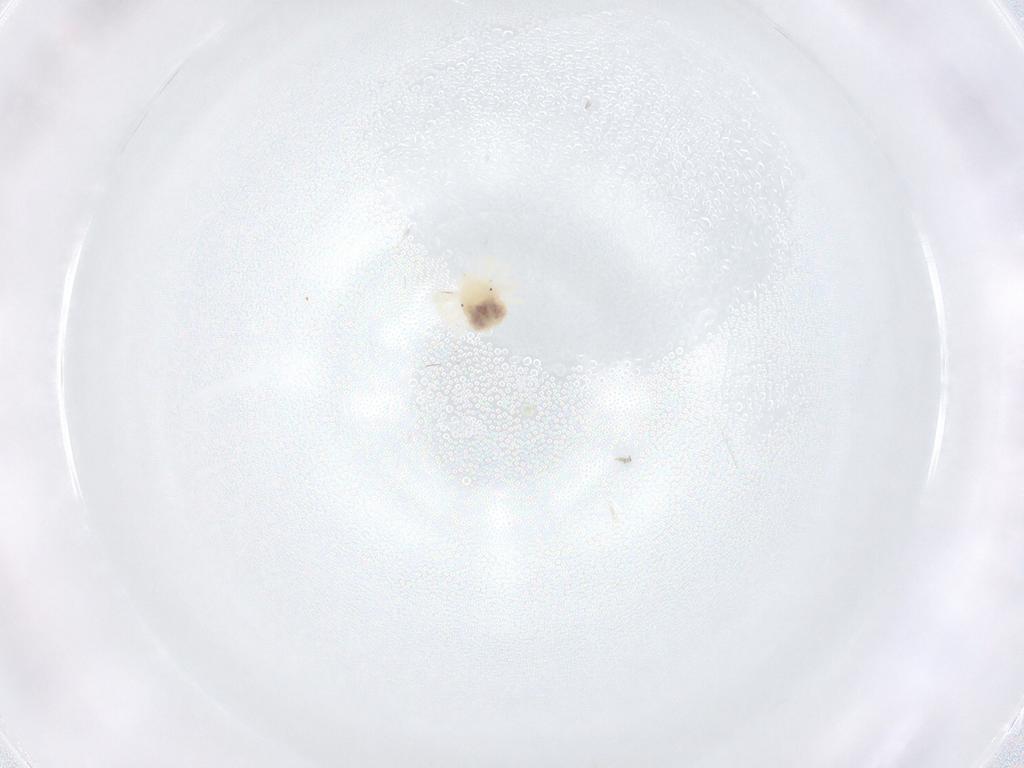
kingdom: Animalia
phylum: Arthropoda
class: Arachnida
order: Trombidiformes
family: Anystidae
